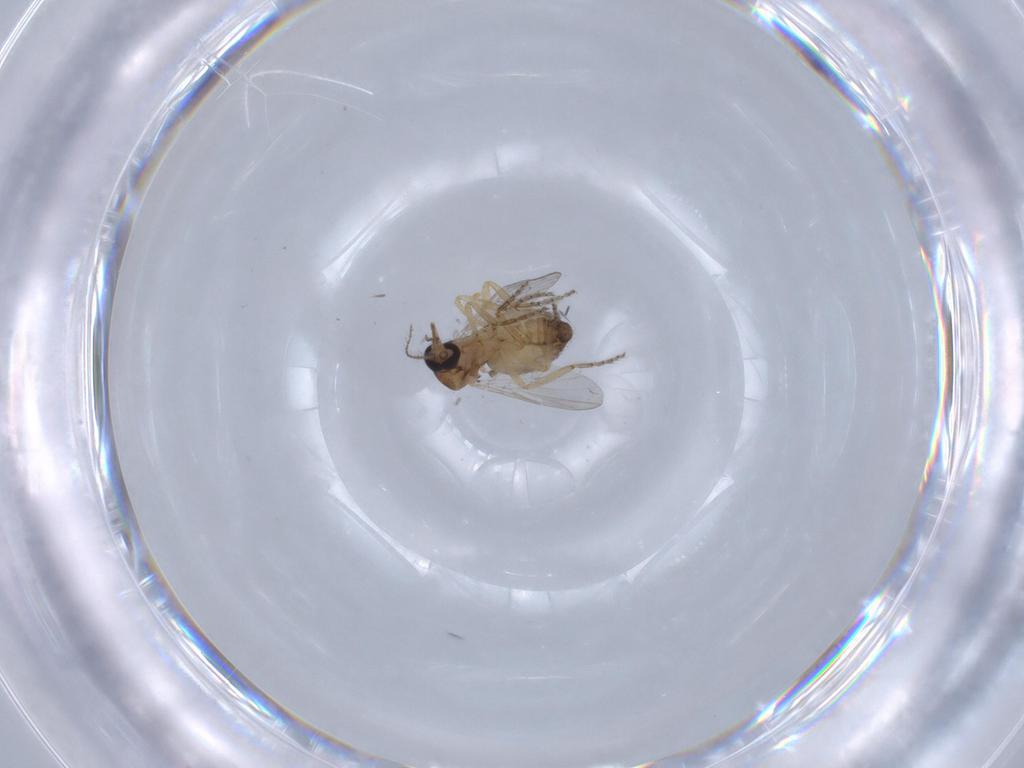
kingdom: Animalia
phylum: Arthropoda
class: Insecta
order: Diptera
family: Ceratopogonidae
